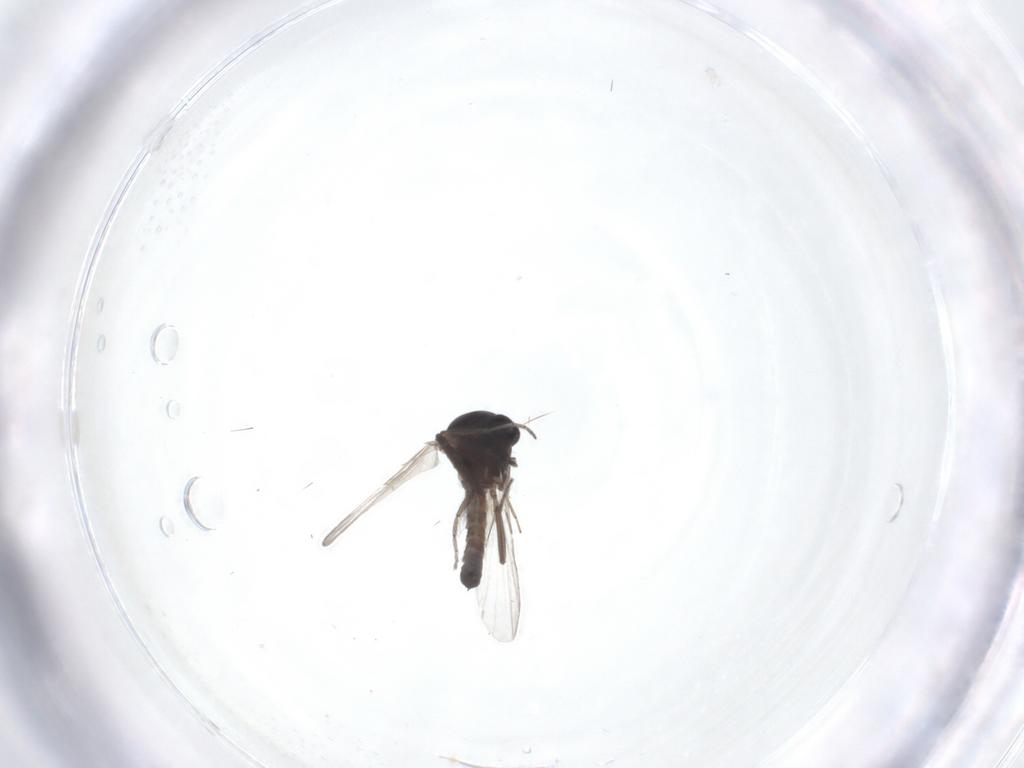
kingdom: Animalia
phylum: Arthropoda
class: Insecta
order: Diptera
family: Ceratopogonidae
